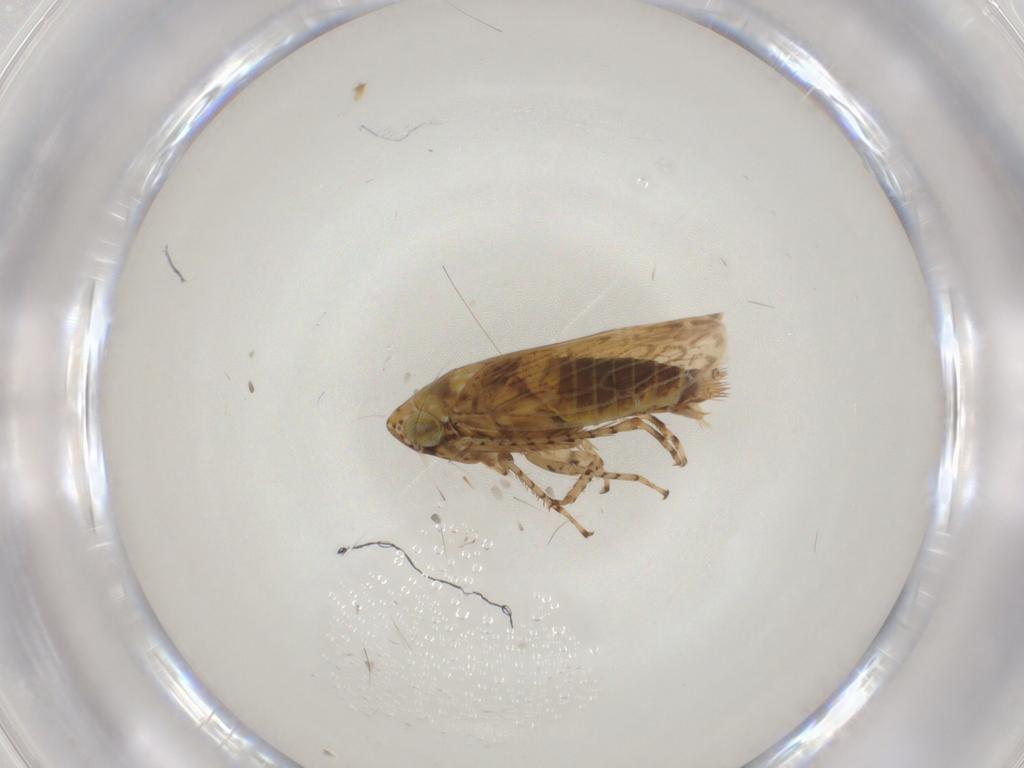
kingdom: Animalia
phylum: Arthropoda
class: Insecta
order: Hemiptera
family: Cicadellidae
